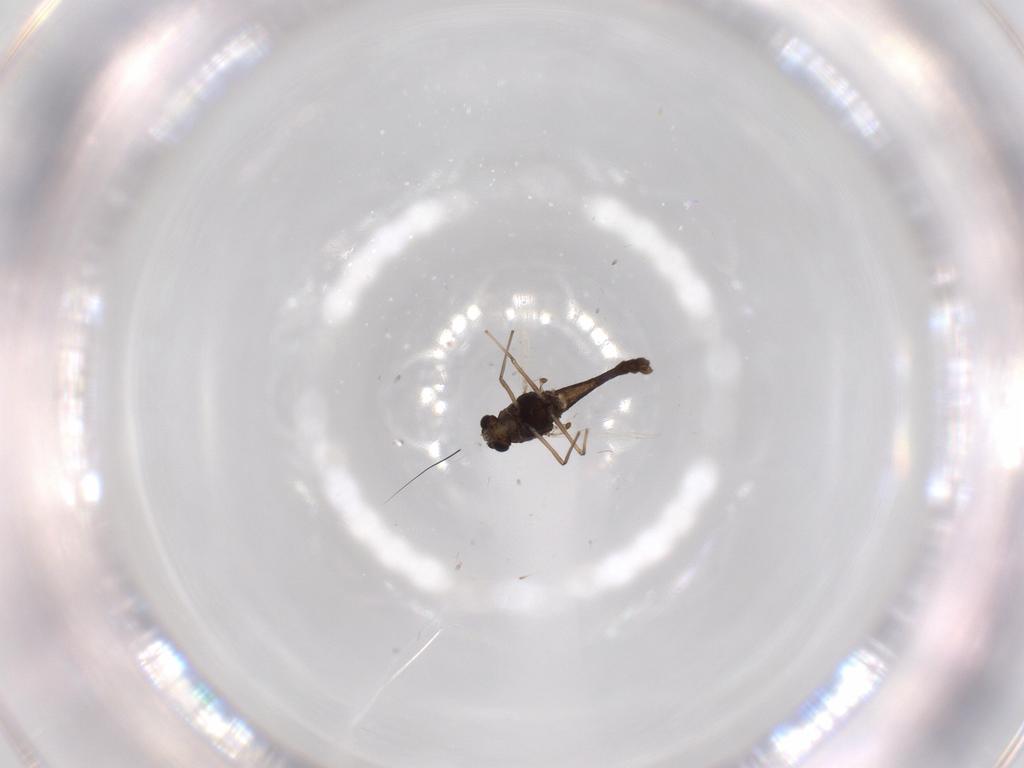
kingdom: Animalia
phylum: Arthropoda
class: Insecta
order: Diptera
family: Chironomidae
